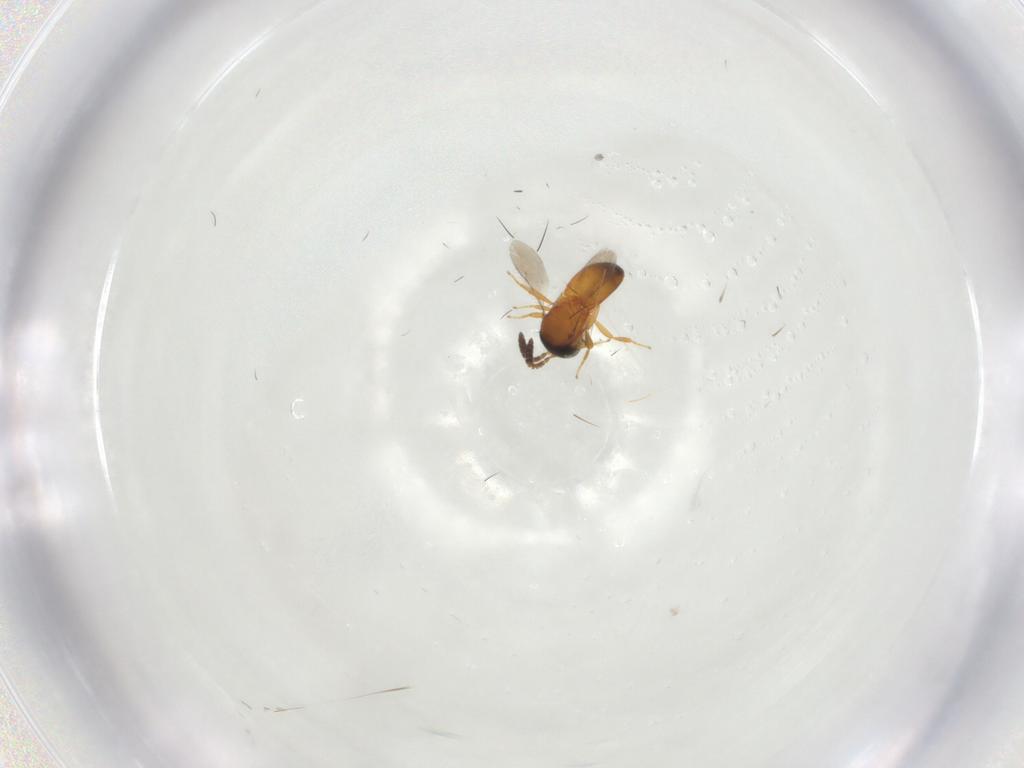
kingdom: Animalia
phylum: Arthropoda
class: Insecta
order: Hymenoptera
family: Scelionidae
